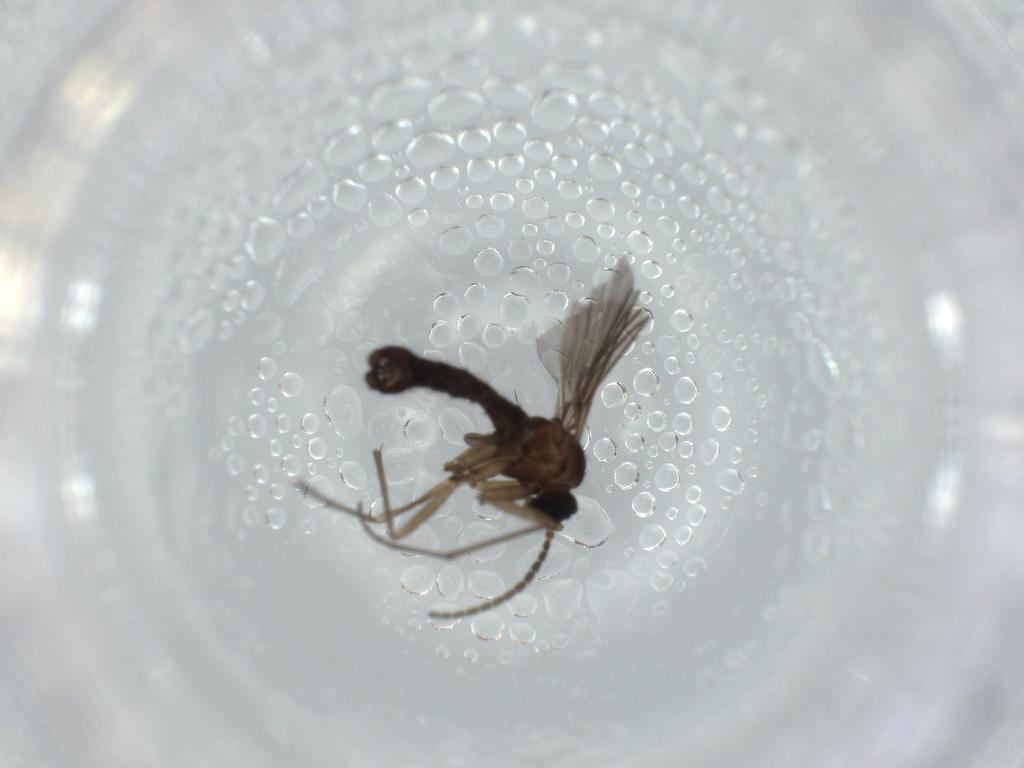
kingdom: Animalia
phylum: Arthropoda
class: Insecta
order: Diptera
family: Sciaridae
